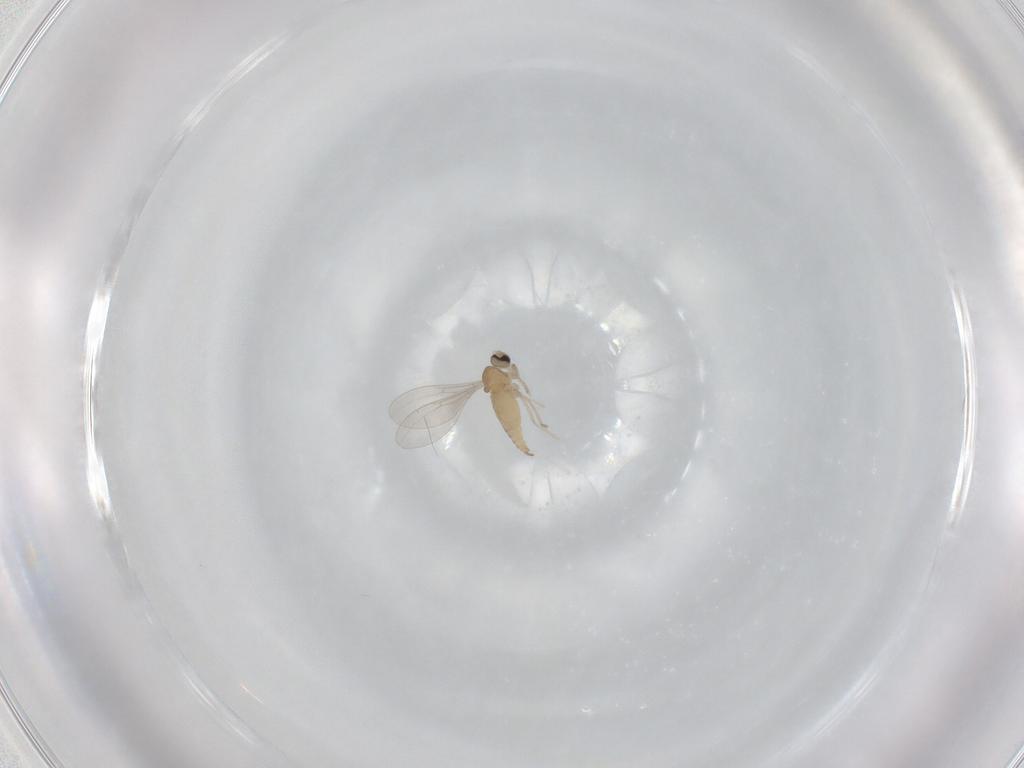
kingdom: Animalia
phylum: Arthropoda
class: Insecta
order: Diptera
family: Cecidomyiidae
